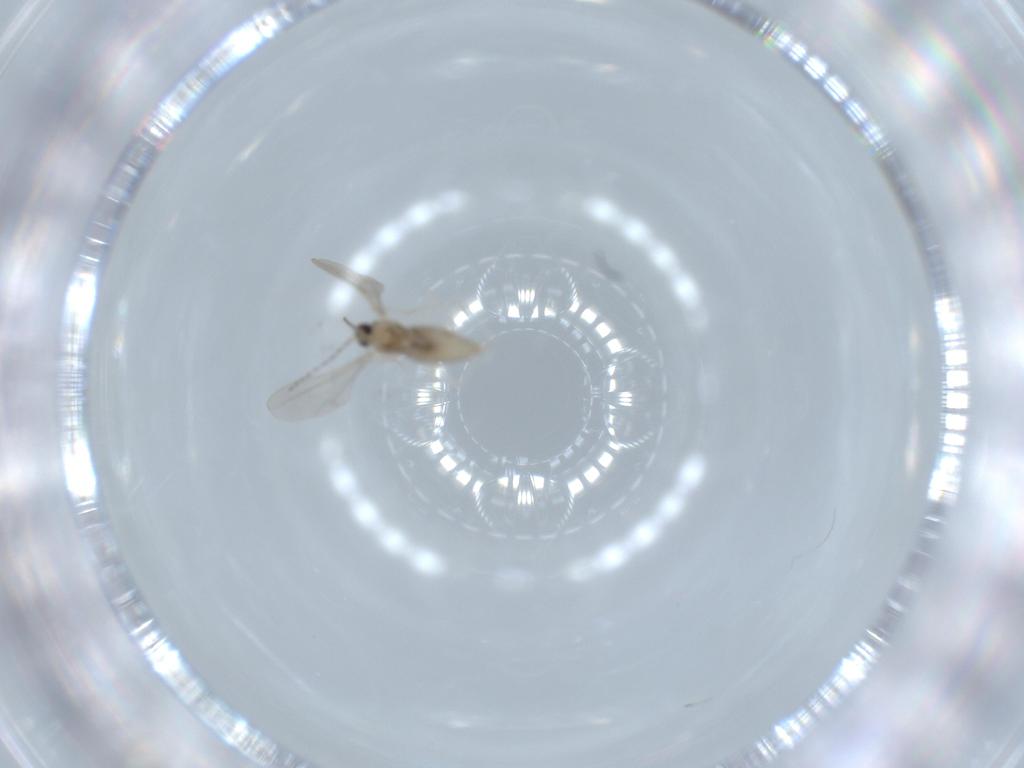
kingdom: Animalia
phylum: Arthropoda
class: Insecta
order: Diptera
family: Cecidomyiidae
